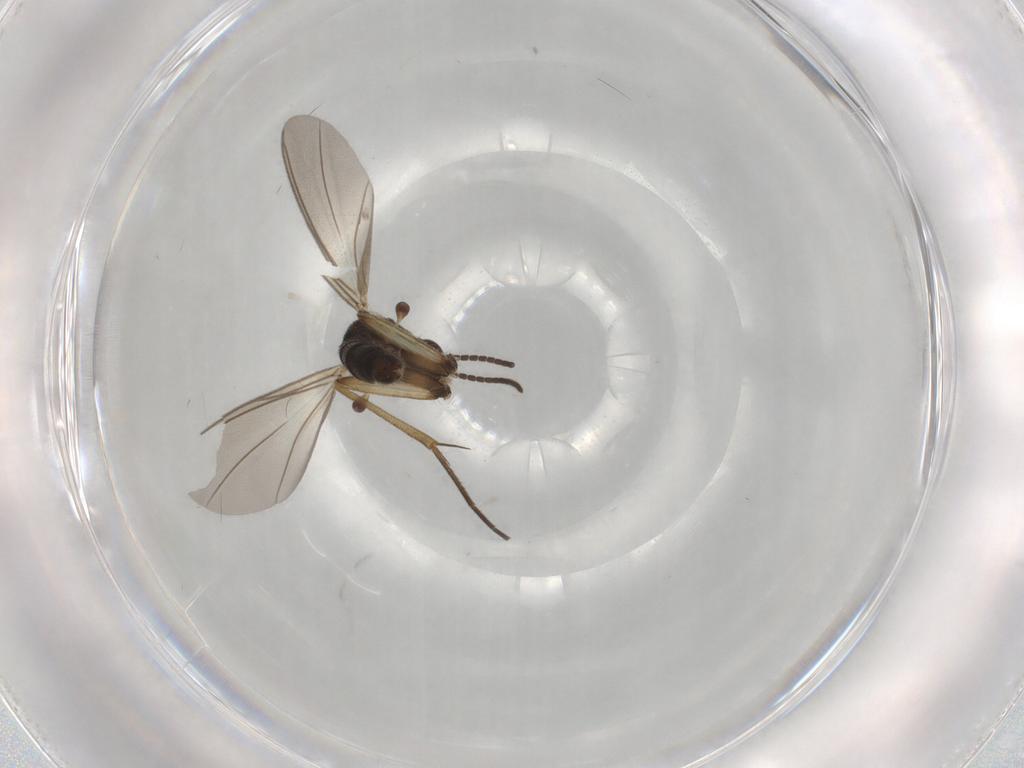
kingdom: Animalia
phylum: Arthropoda
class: Insecta
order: Diptera
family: Mycetophilidae
